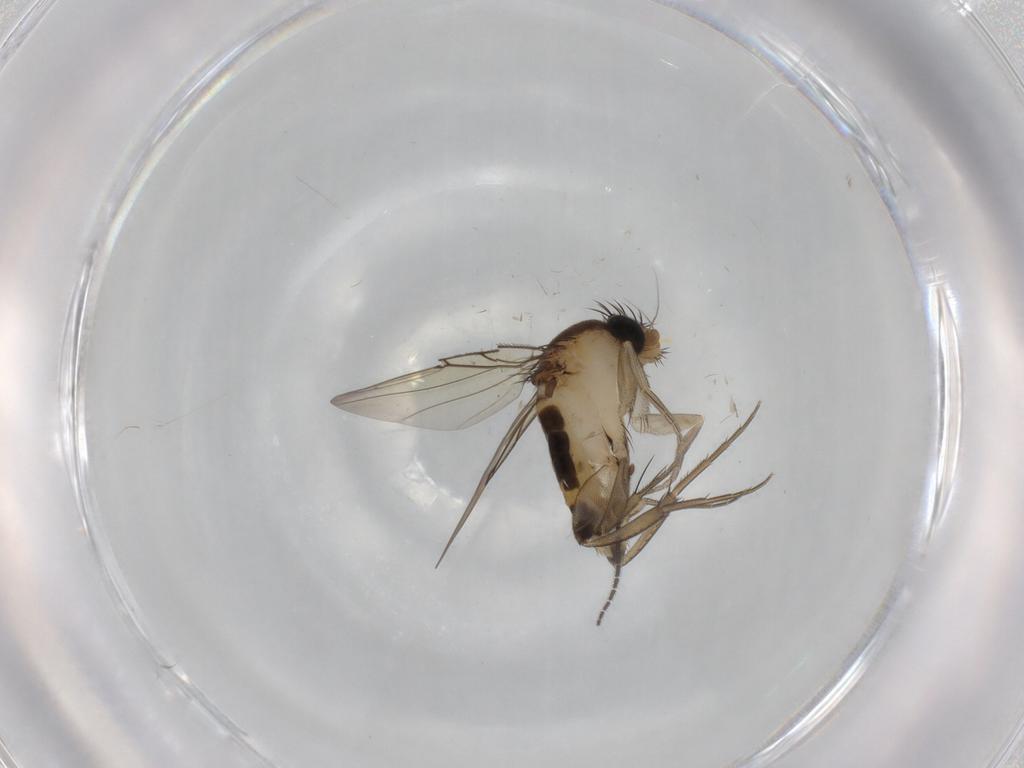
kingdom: Animalia
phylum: Arthropoda
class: Insecta
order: Diptera
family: Phoridae
